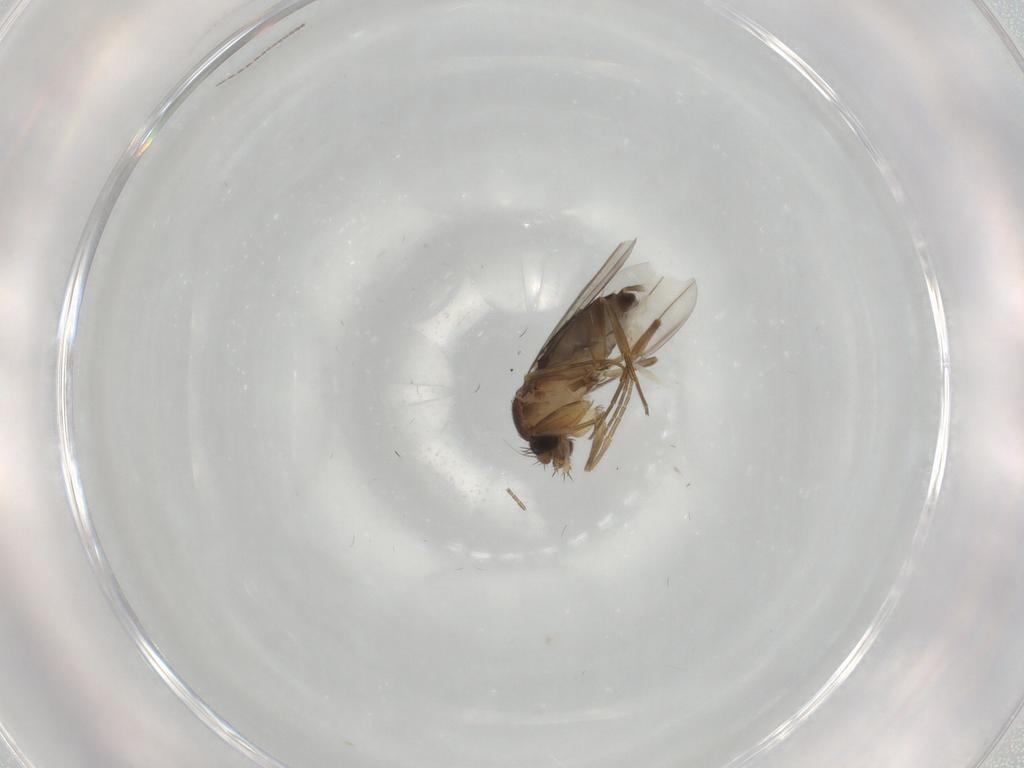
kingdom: Animalia
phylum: Arthropoda
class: Insecta
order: Diptera
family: Phoridae
